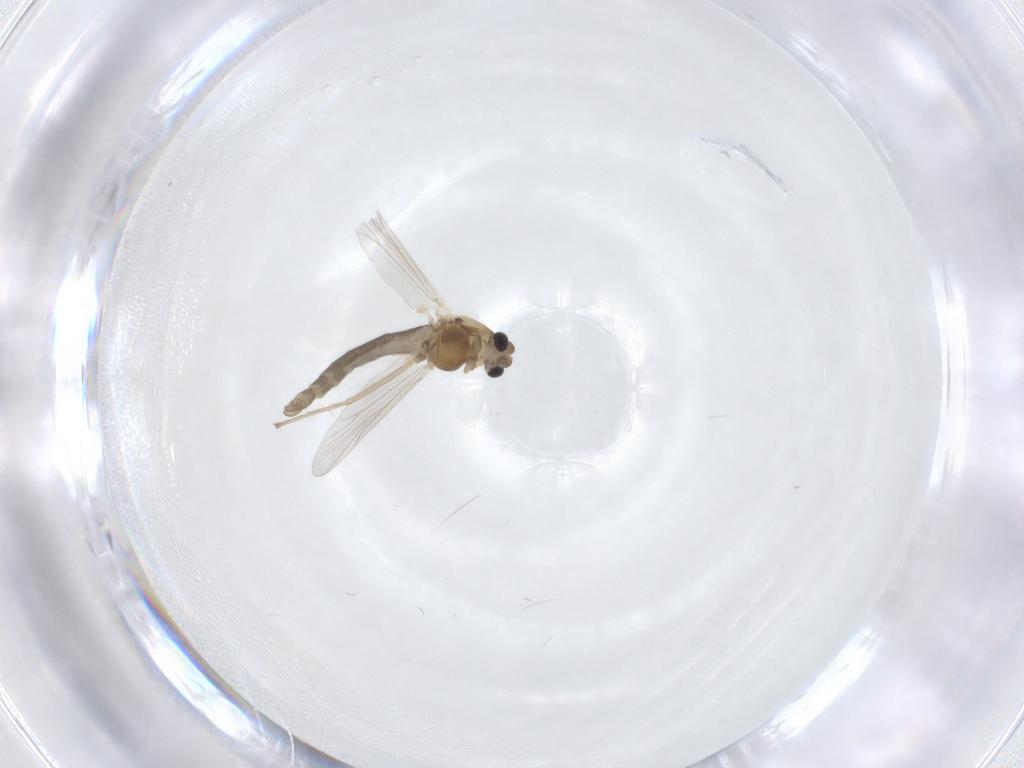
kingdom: Animalia
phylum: Arthropoda
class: Insecta
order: Diptera
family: Chironomidae
